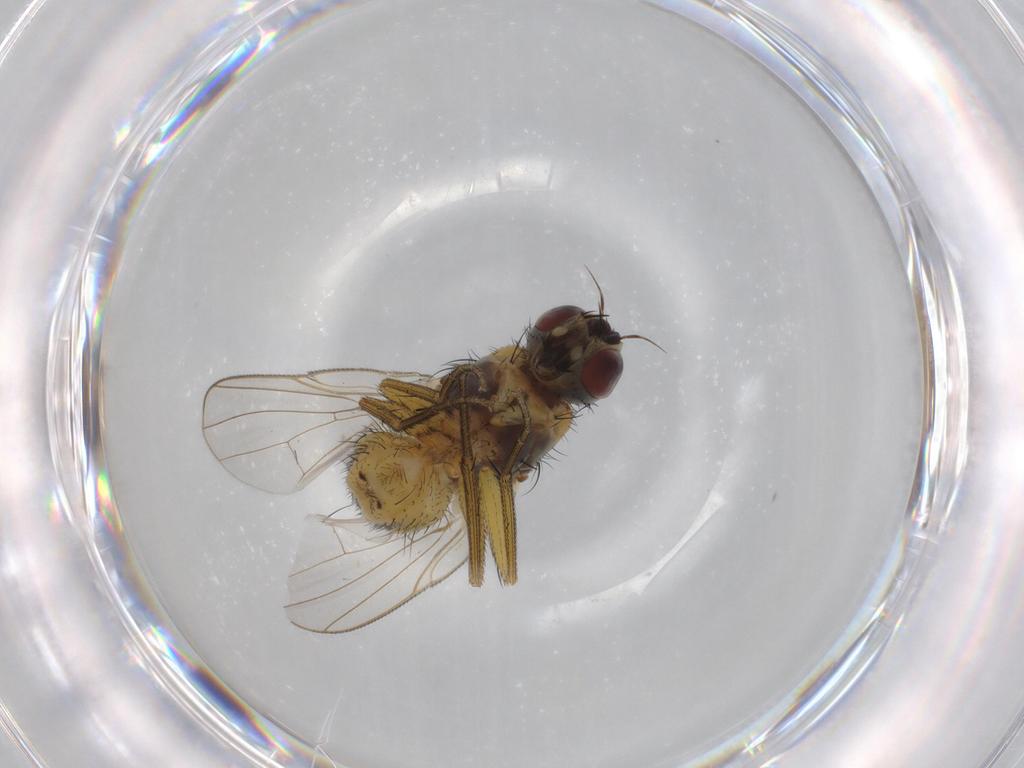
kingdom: Animalia
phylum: Arthropoda
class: Insecta
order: Diptera
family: Muscidae
